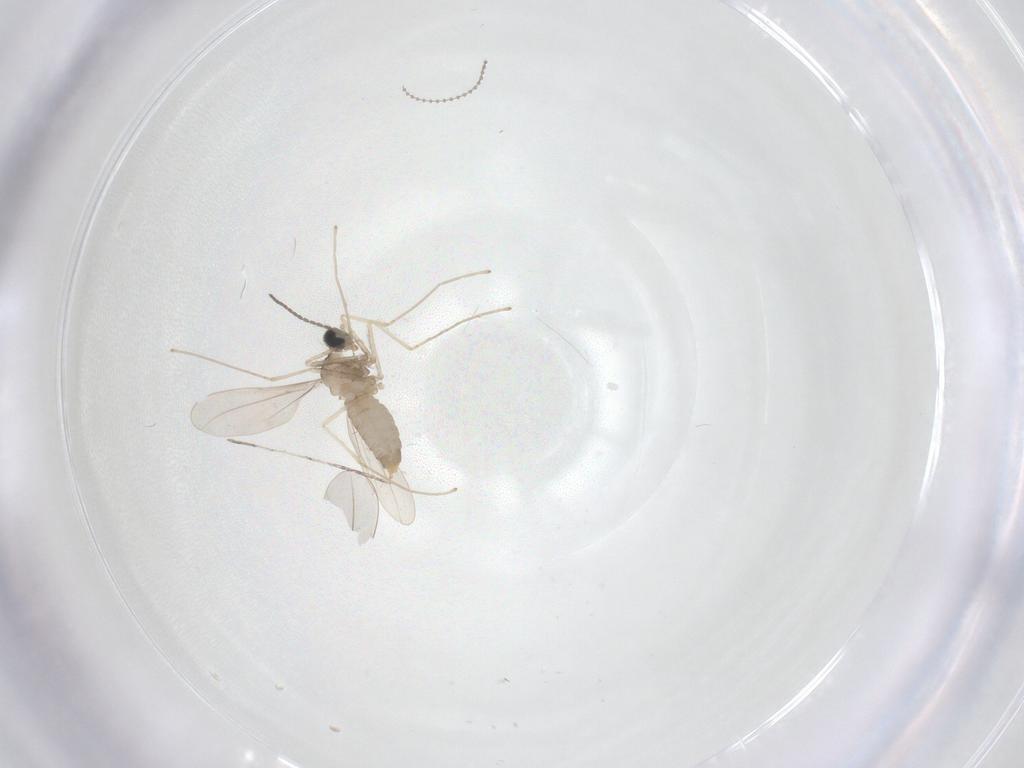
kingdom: Animalia
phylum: Arthropoda
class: Insecta
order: Diptera
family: Cecidomyiidae
